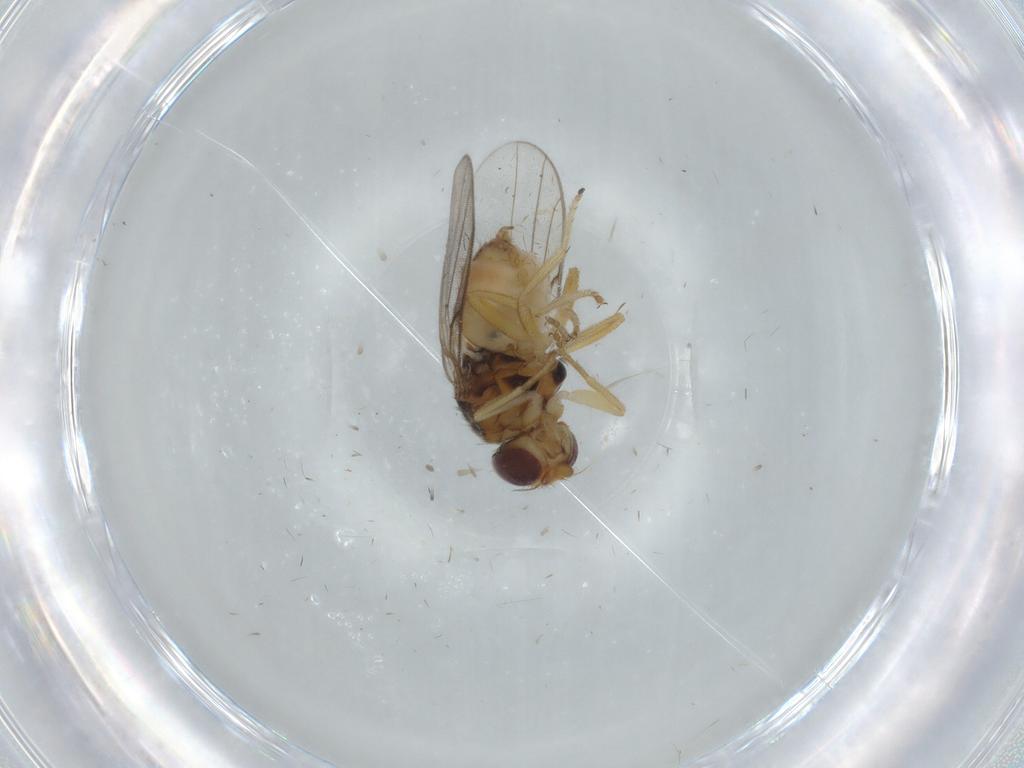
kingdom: Animalia
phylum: Arthropoda
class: Insecta
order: Diptera
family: Chloropidae
